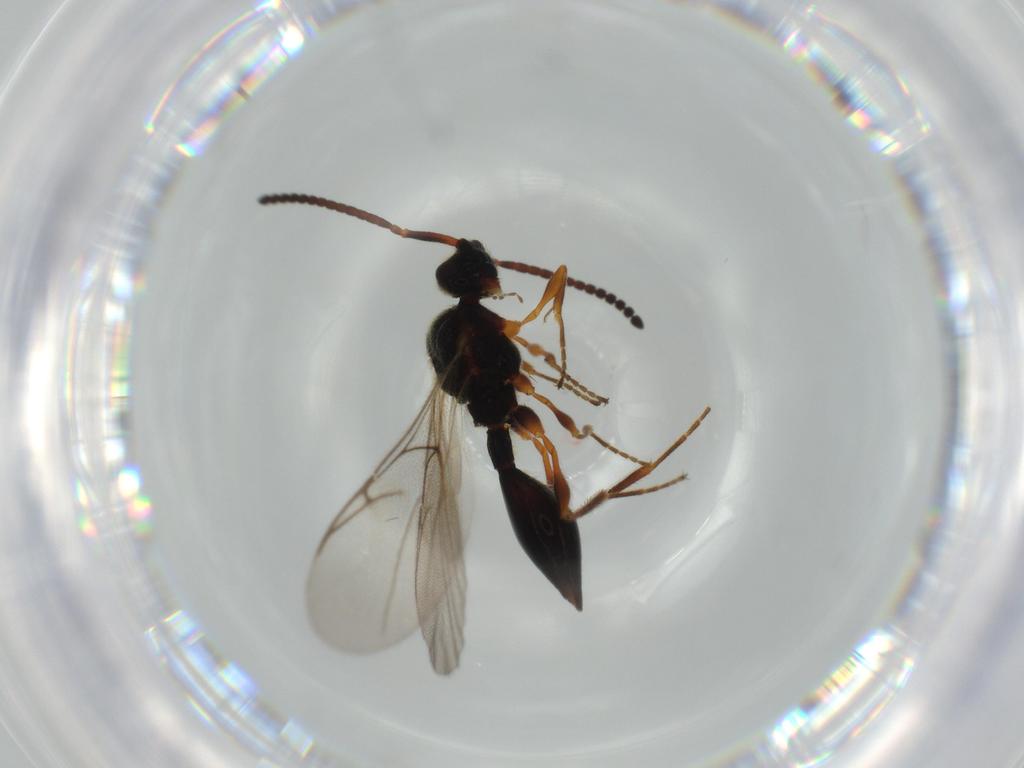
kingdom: Animalia
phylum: Arthropoda
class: Insecta
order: Hymenoptera
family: Diapriidae
